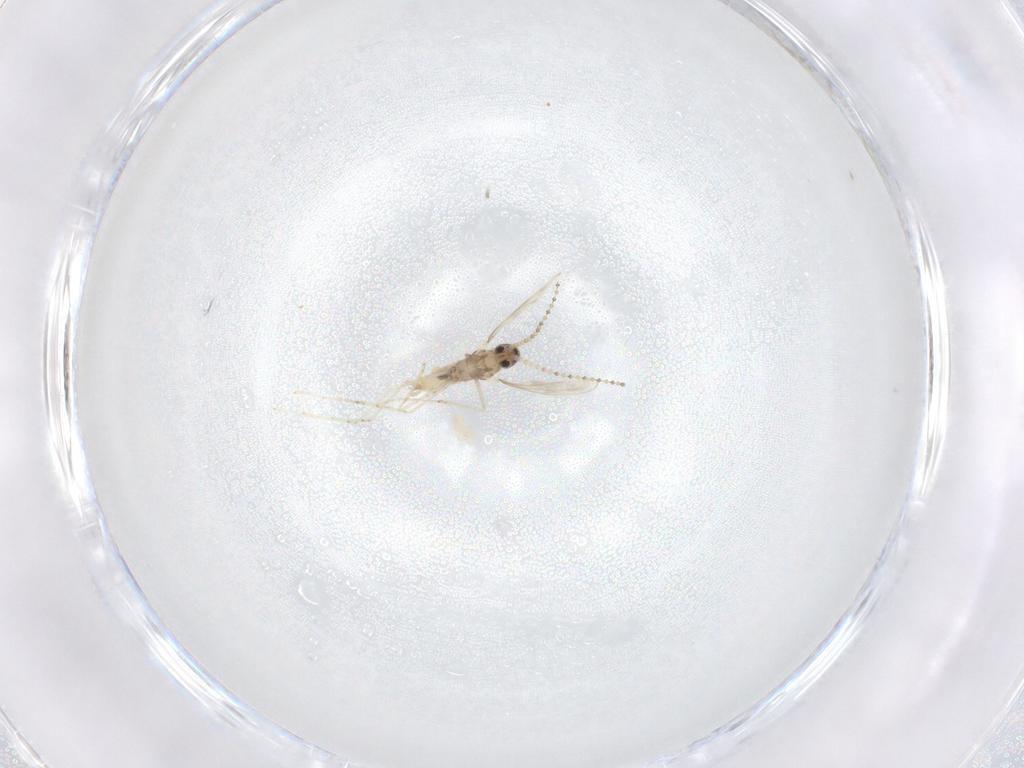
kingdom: Animalia
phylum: Arthropoda
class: Insecta
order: Diptera
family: Cecidomyiidae
